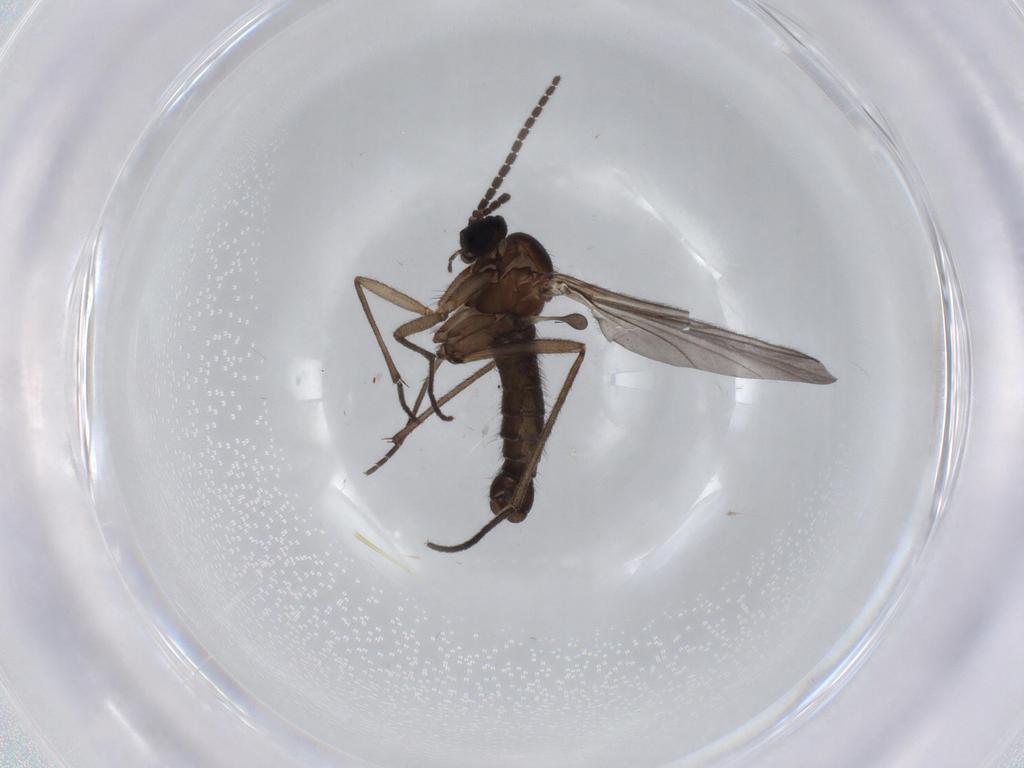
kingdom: Animalia
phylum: Arthropoda
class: Insecta
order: Diptera
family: Sciaridae
